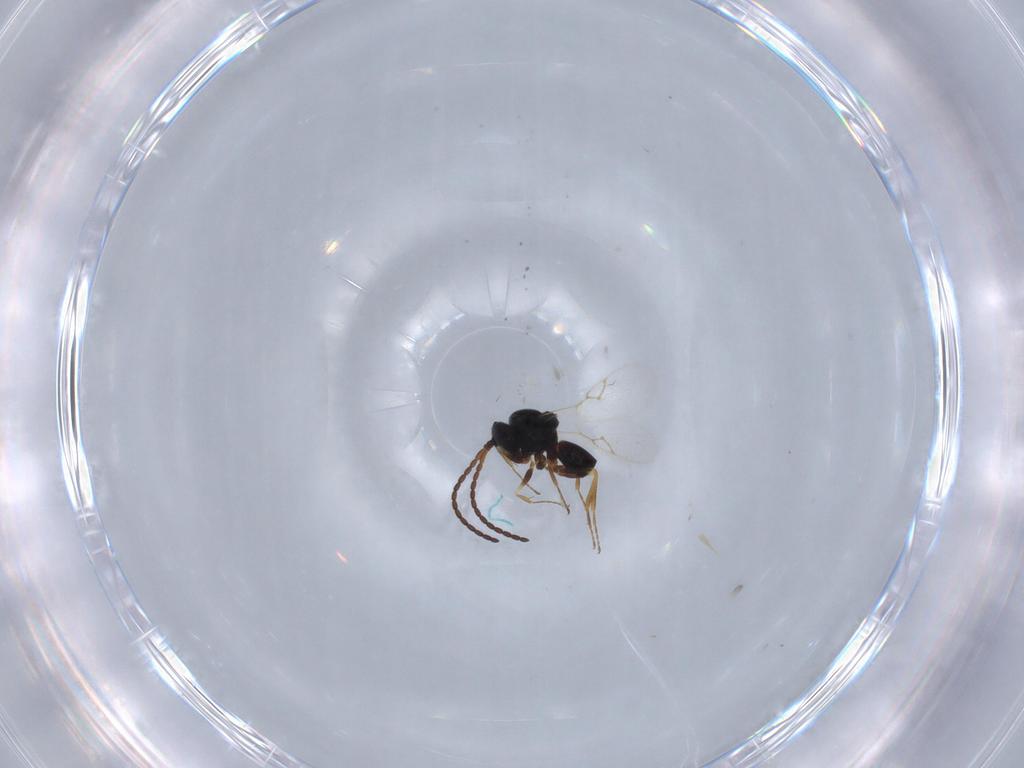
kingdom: Animalia
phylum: Arthropoda
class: Insecta
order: Hymenoptera
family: Figitidae
